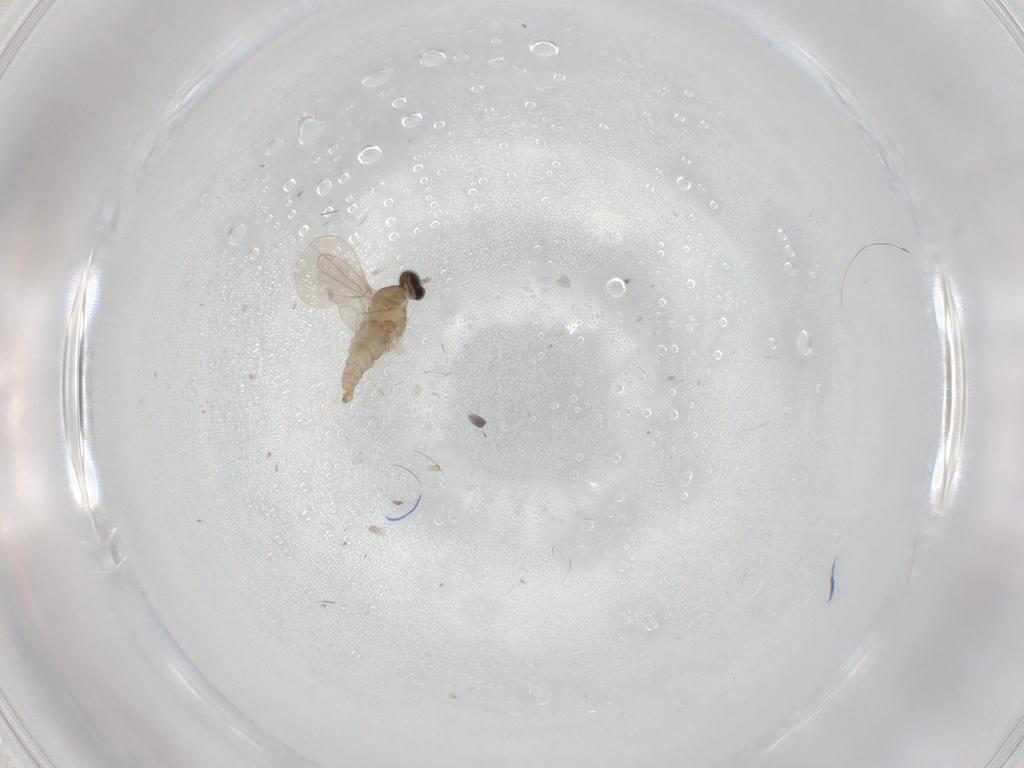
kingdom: Animalia
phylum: Arthropoda
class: Insecta
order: Diptera
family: Cecidomyiidae
